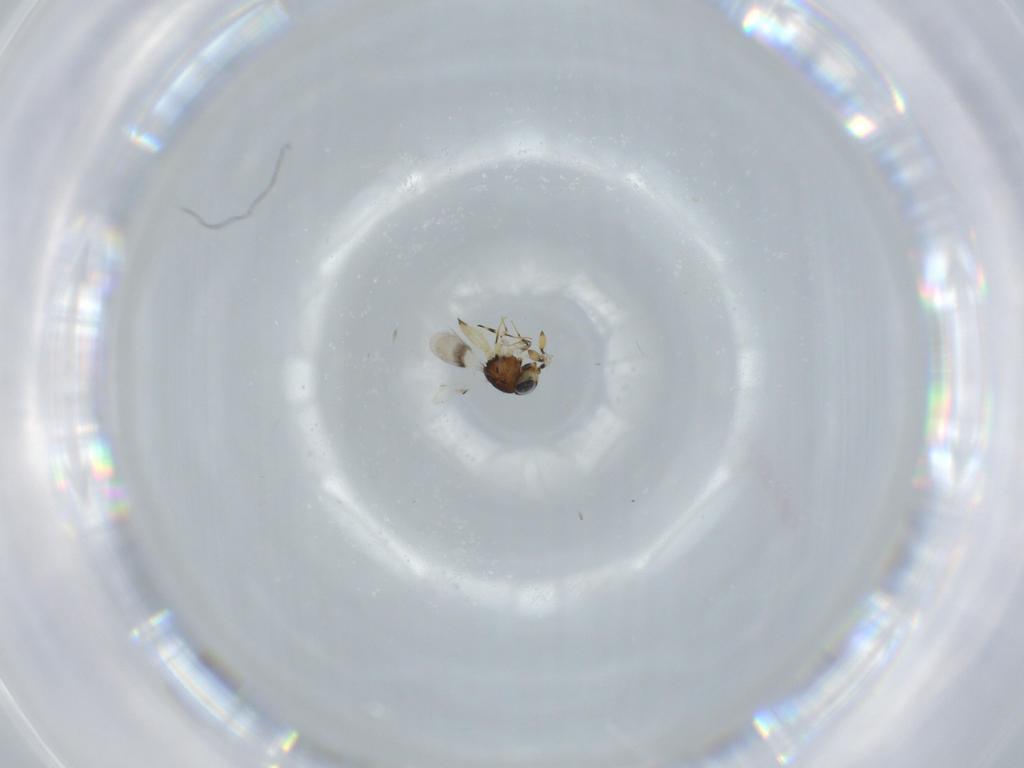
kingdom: Animalia
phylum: Arthropoda
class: Insecta
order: Hymenoptera
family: Scelionidae
